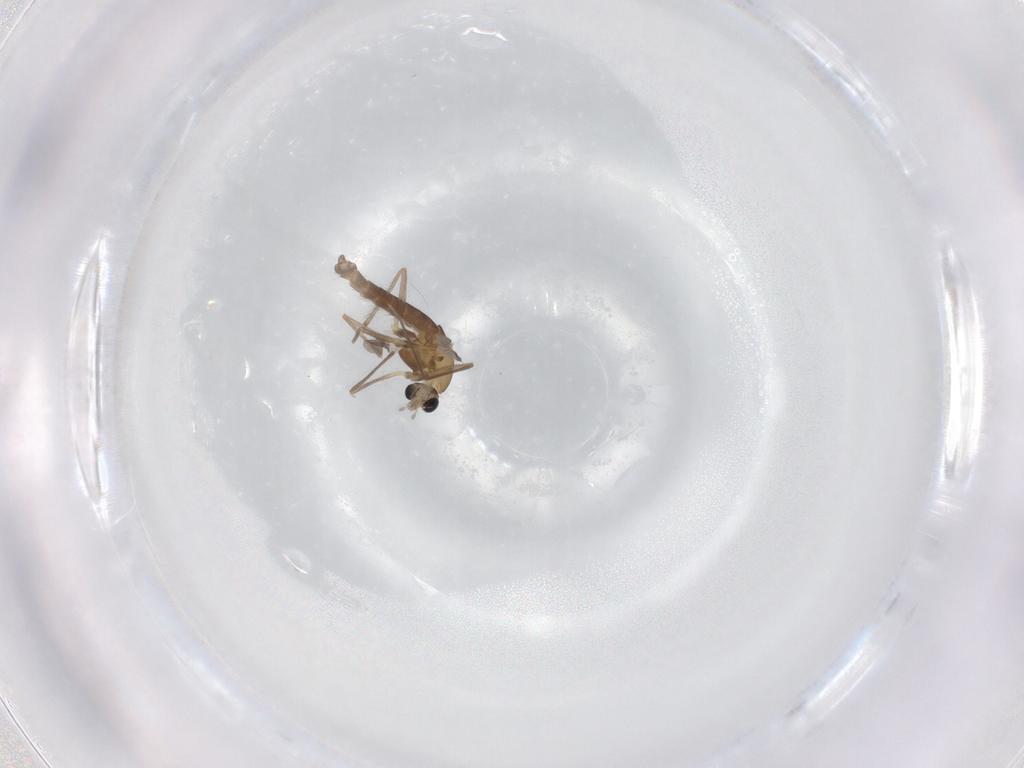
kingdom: Animalia
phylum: Arthropoda
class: Insecta
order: Diptera
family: Chironomidae
